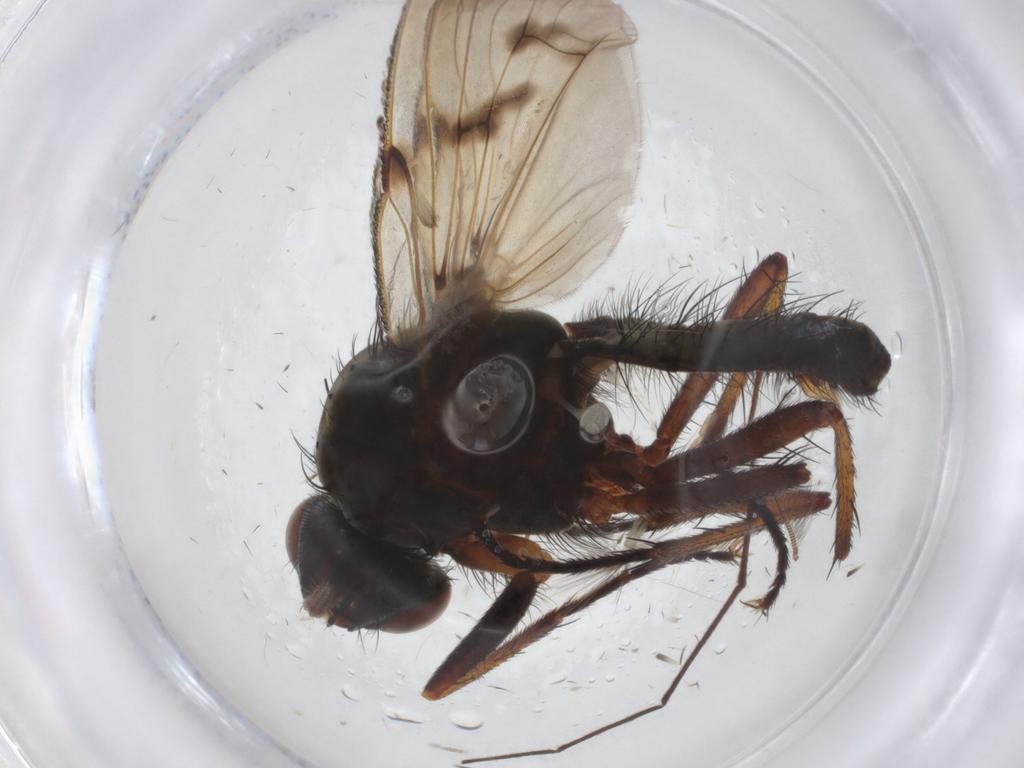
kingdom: Animalia
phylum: Arthropoda
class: Insecta
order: Diptera
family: Anthomyiidae
